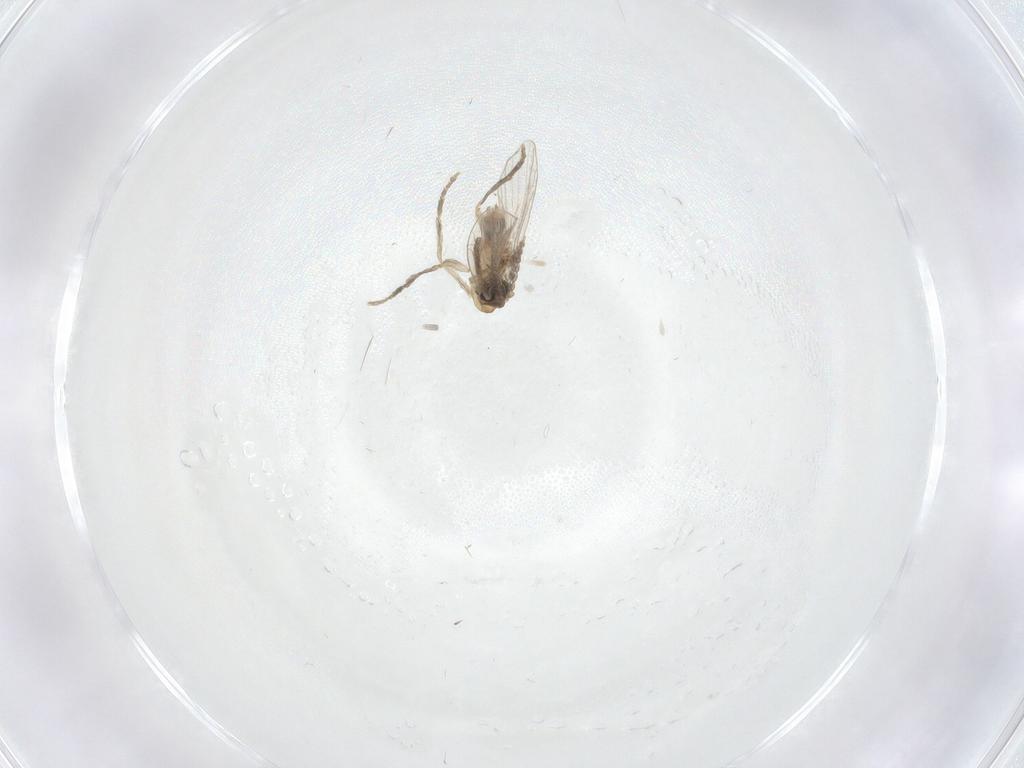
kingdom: Animalia
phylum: Arthropoda
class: Insecta
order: Diptera
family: Psychodidae
